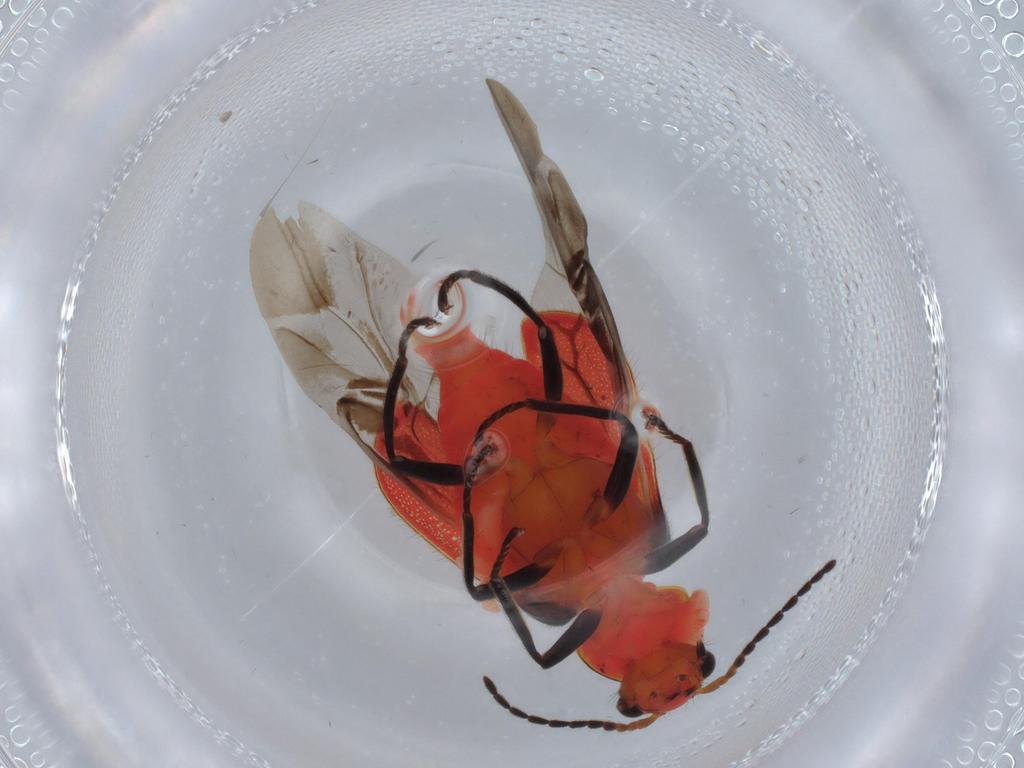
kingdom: Animalia
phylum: Arthropoda
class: Insecta
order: Coleoptera
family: Melyridae
